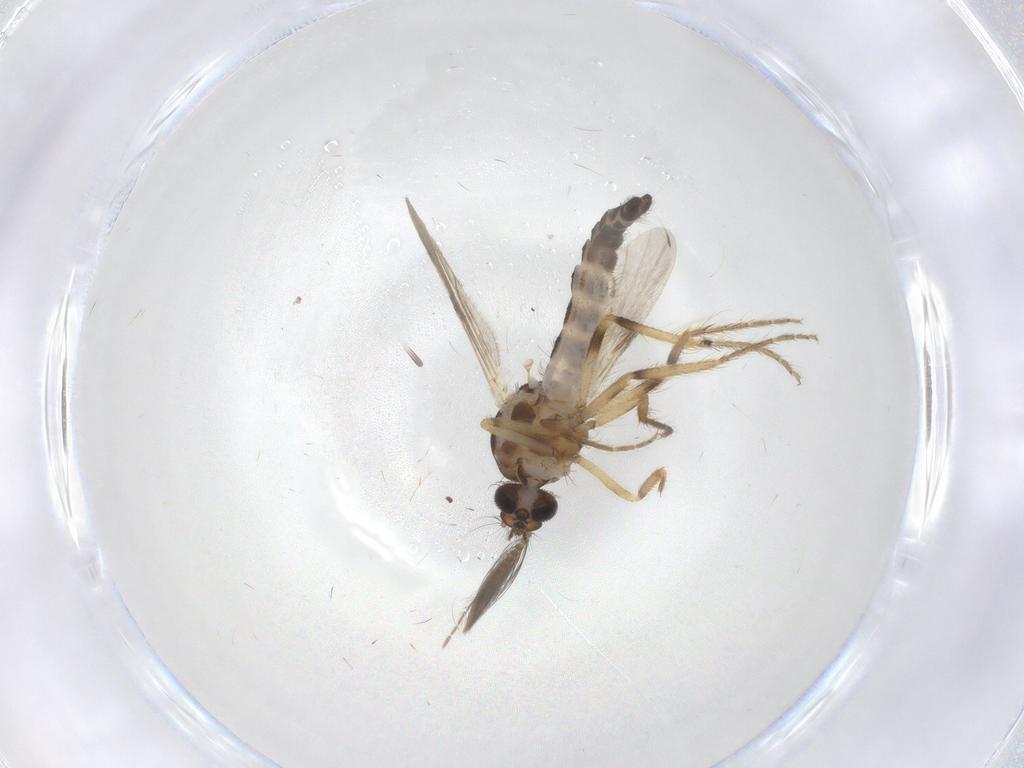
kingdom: Animalia
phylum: Arthropoda
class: Insecta
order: Diptera
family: Ceratopogonidae
